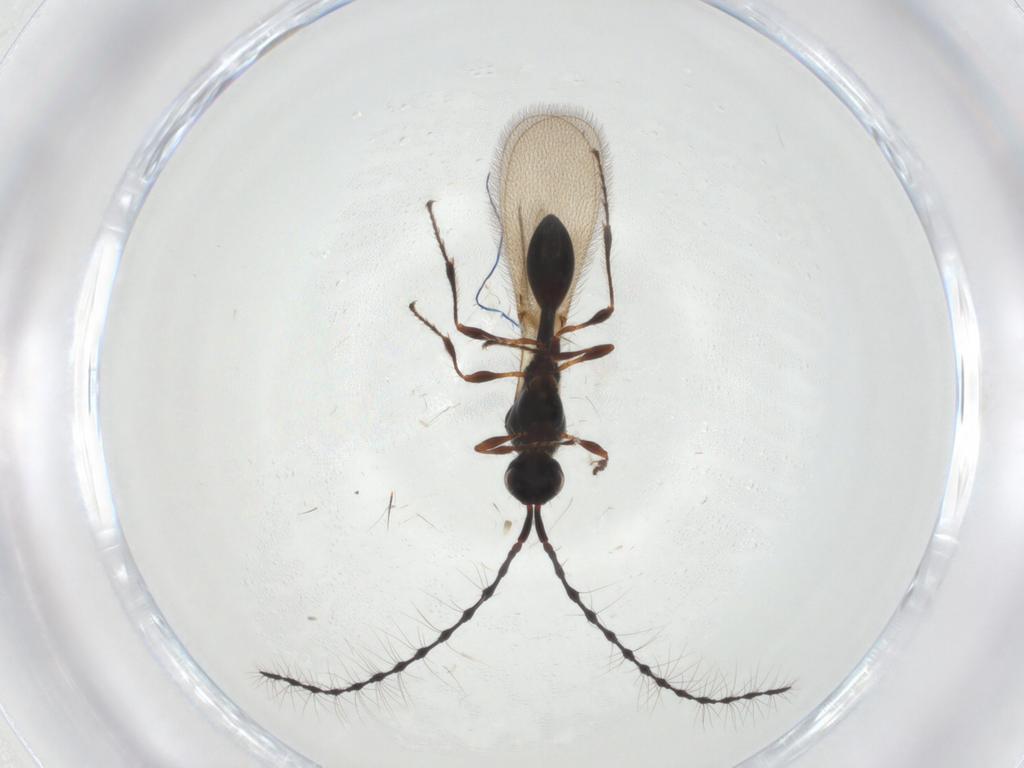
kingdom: Animalia
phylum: Arthropoda
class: Insecta
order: Hymenoptera
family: Diapriidae
